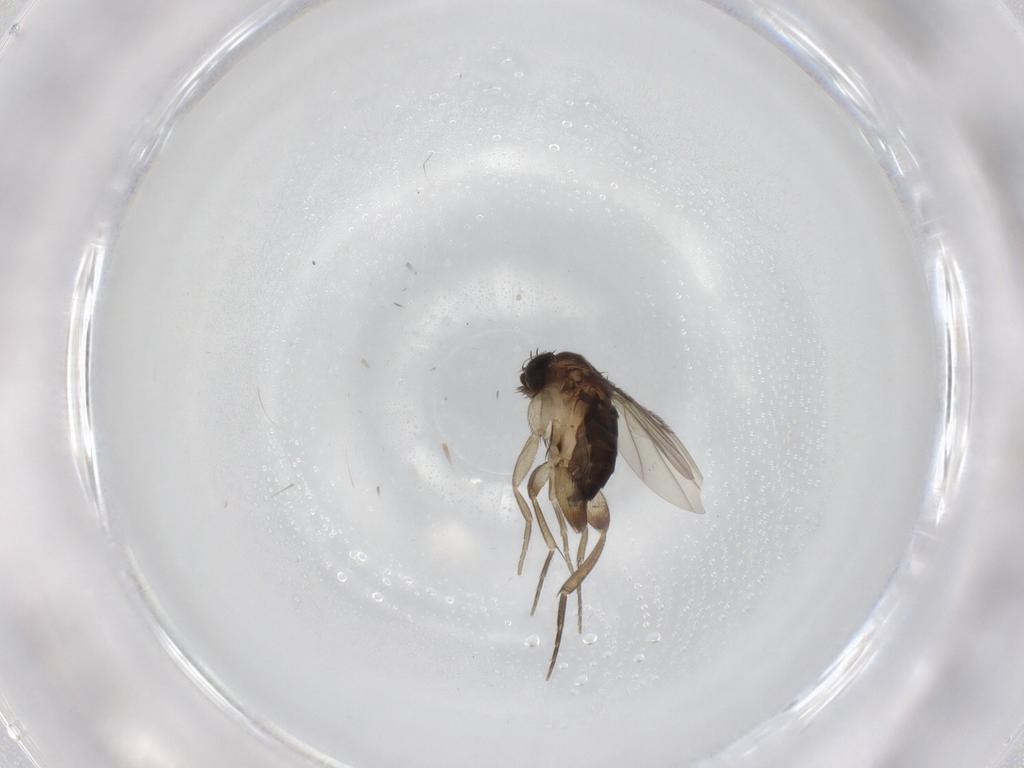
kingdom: Animalia
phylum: Arthropoda
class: Insecta
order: Diptera
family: Phoridae
